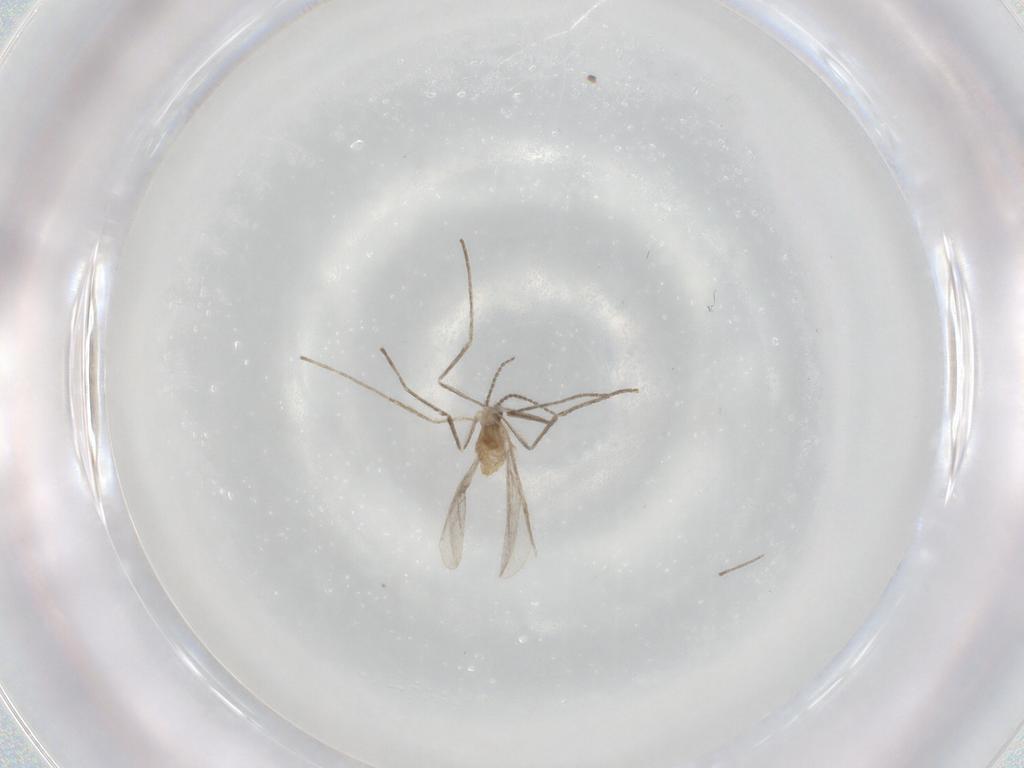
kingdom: Animalia
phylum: Arthropoda
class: Insecta
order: Diptera
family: Cecidomyiidae
